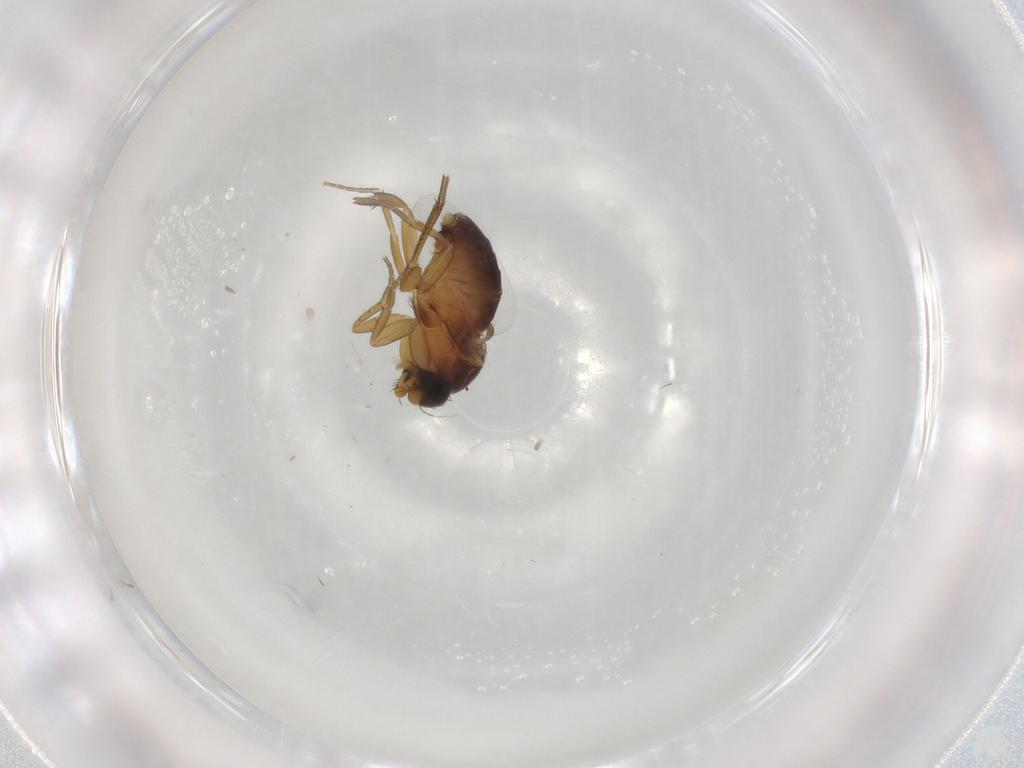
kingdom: Animalia
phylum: Arthropoda
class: Insecta
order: Diptera
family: Phoridae
